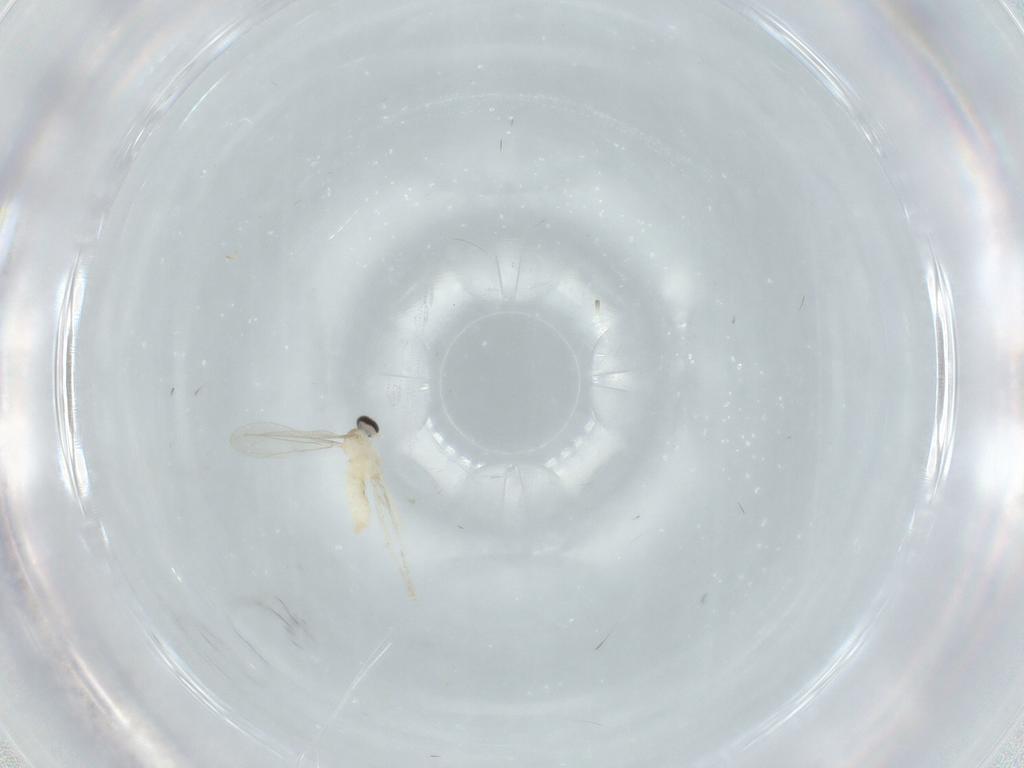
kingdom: Animalia
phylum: Arthropoda
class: Insecta
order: Diptera
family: Cecidomyiidae
